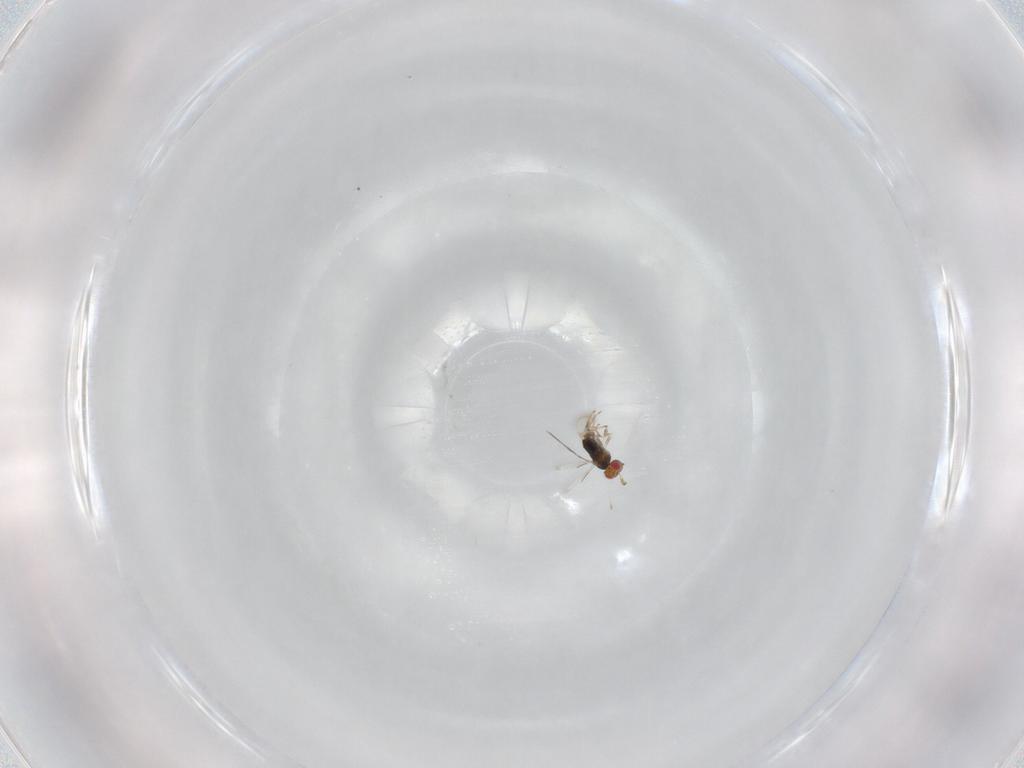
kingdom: Animalia
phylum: Arthropoda
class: Insecta
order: Hymenoptera
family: Aphelinidae
